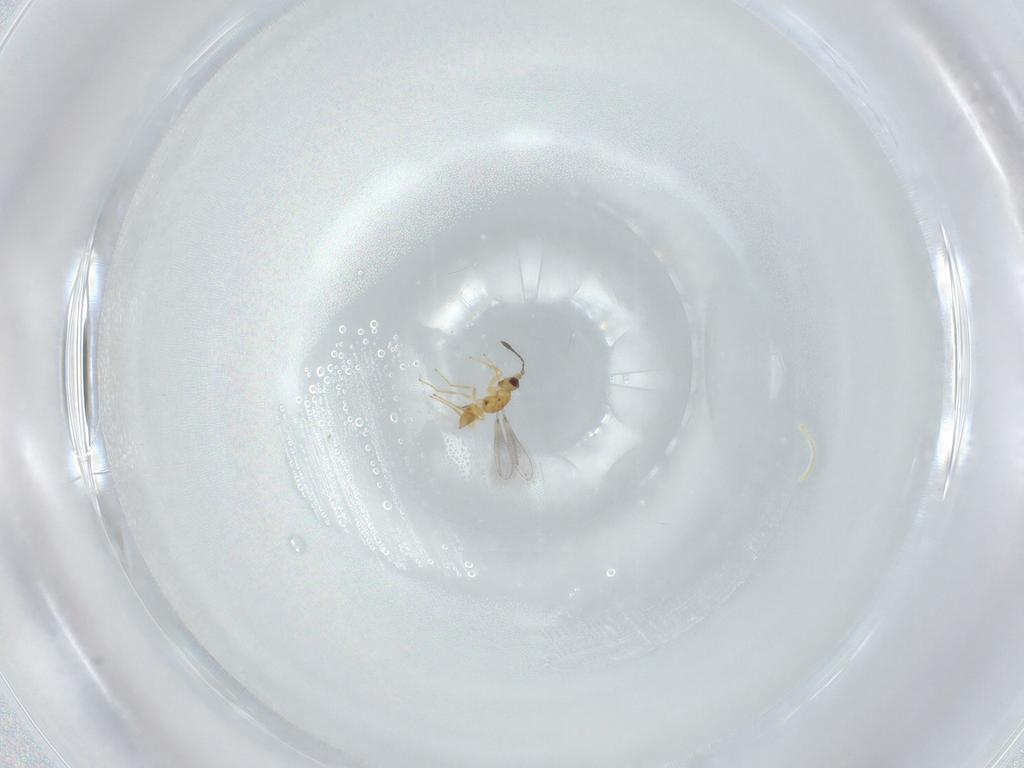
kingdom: Animalia
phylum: Arthropoda
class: Insecta
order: Hymenoptera
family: Mymaridae
